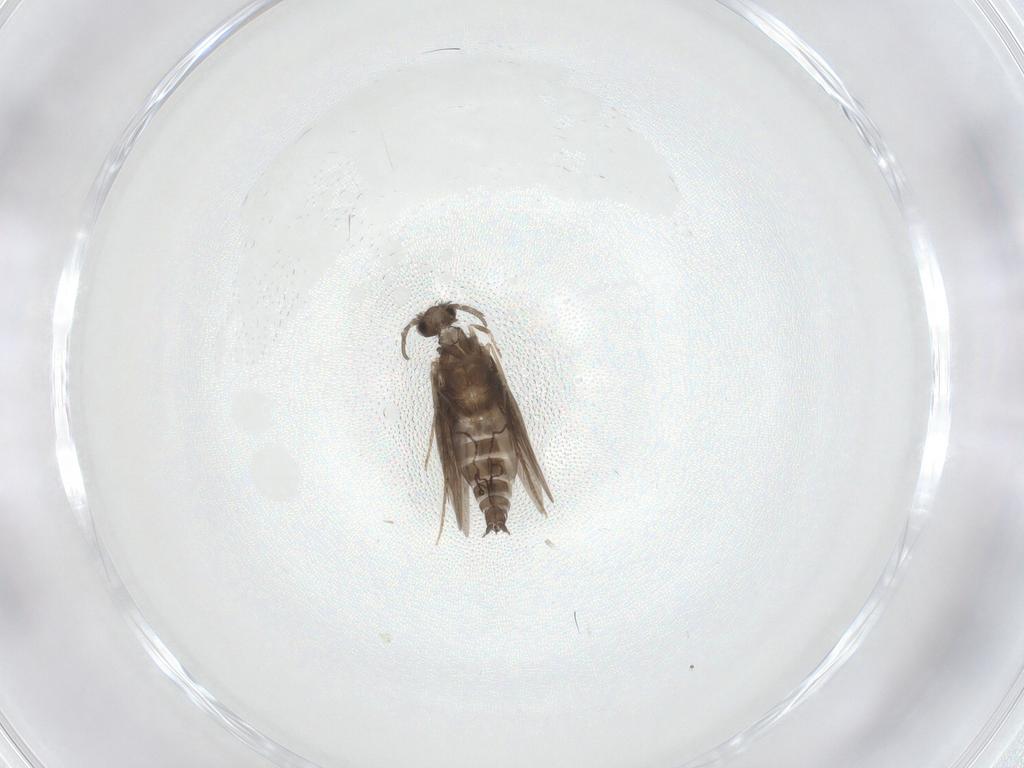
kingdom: Animalia
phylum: Arthropoda
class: Insecta
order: Trichoptera
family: Hydroptilidae
